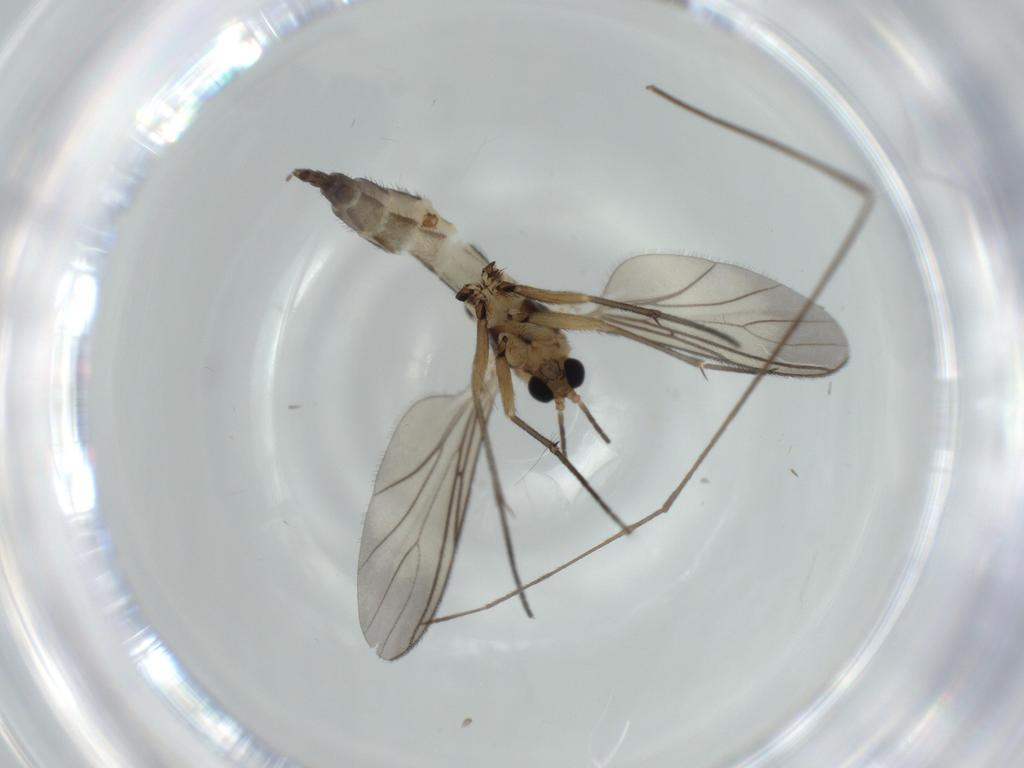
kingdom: Animalia
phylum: Arthropoda
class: Insecta
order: Diptera
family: Sciaridae
